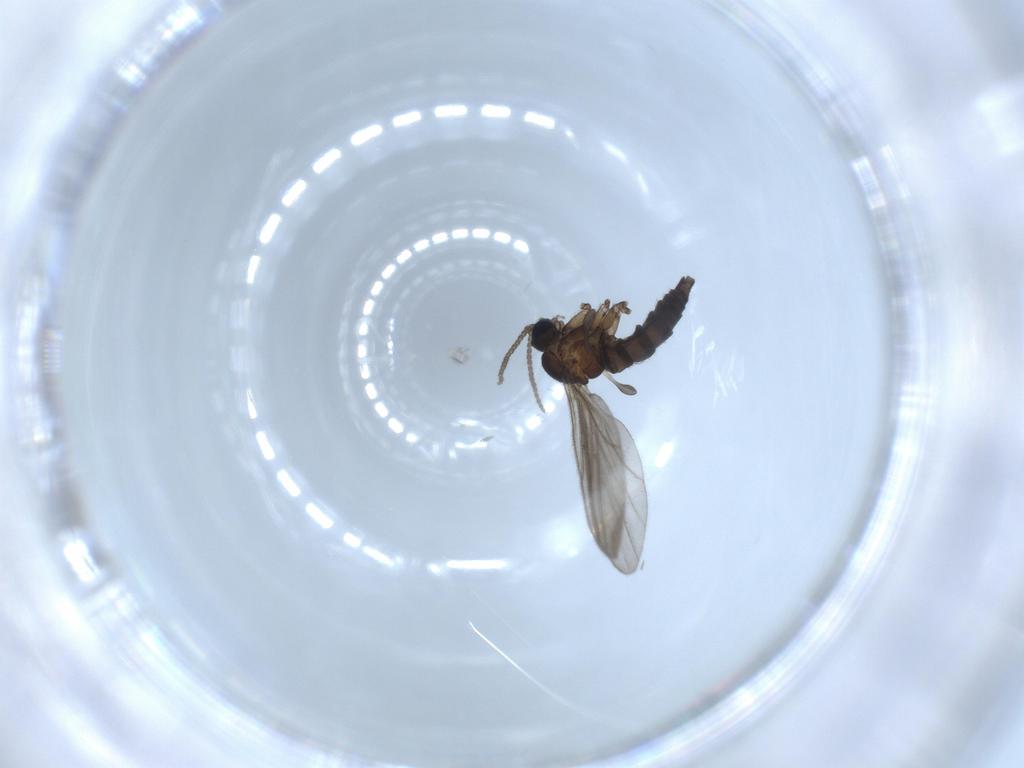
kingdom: Animalia
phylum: Arthropoda
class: Insecta
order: Diptera
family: Sciaridae
